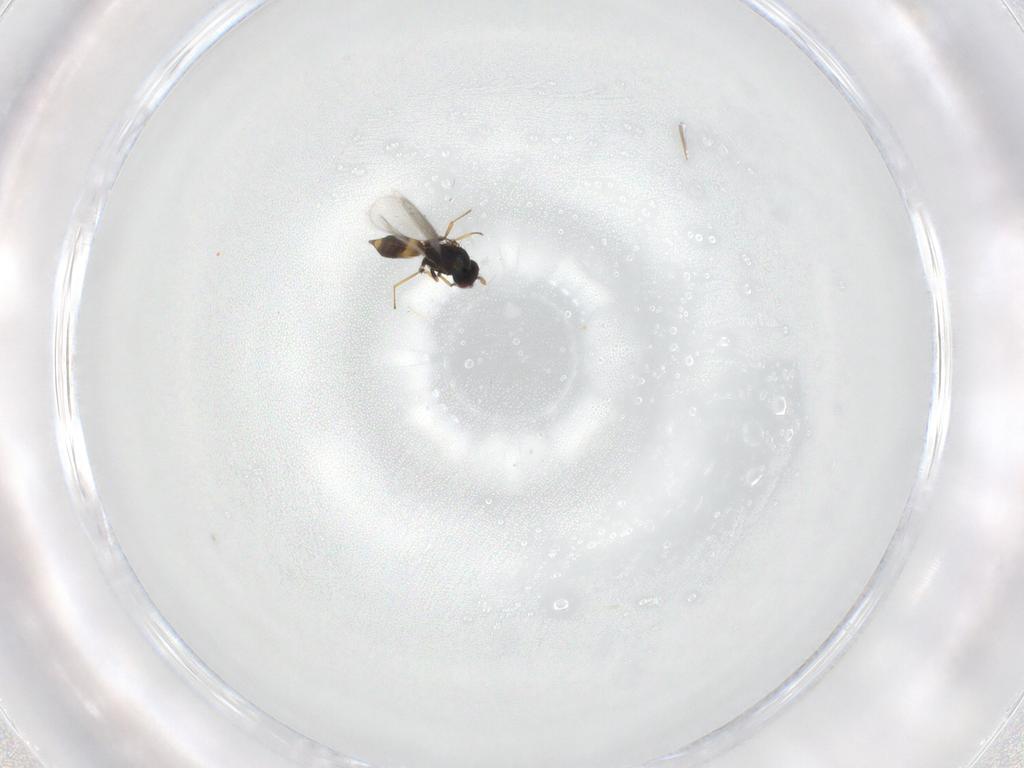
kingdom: Animalia
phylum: Arthropoda
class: Insecta
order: Hymenoptera
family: Eulophidae
